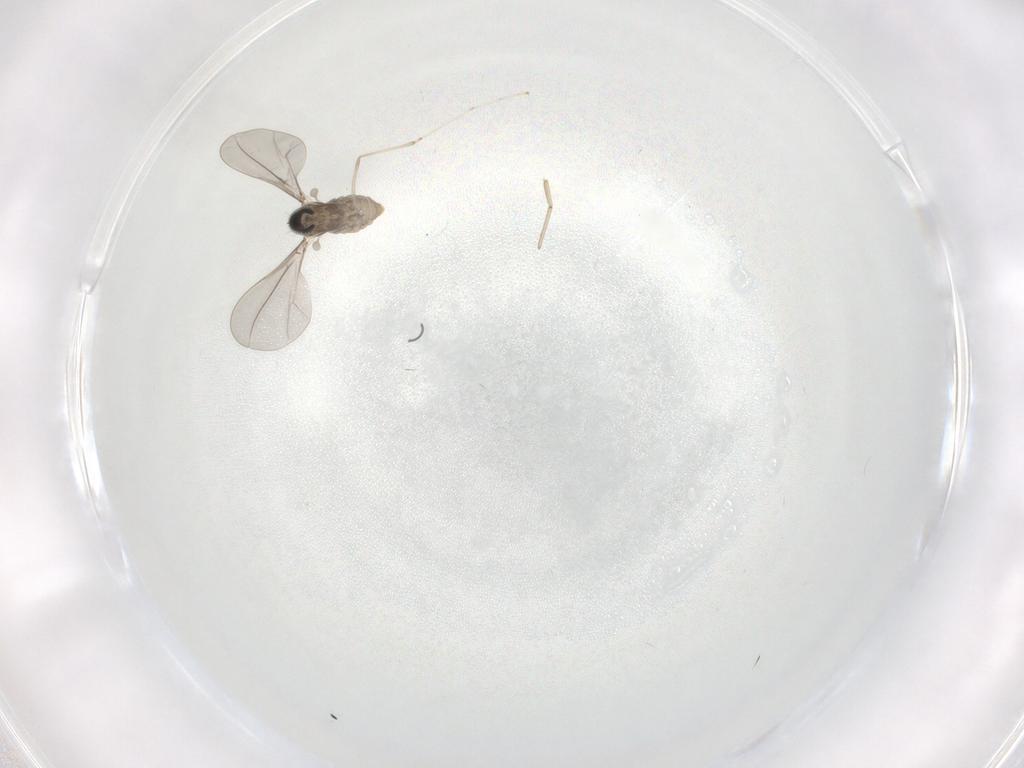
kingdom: Animalia
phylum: Arthropoda
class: Insecta
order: Diptera
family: Cecidomyiidae
